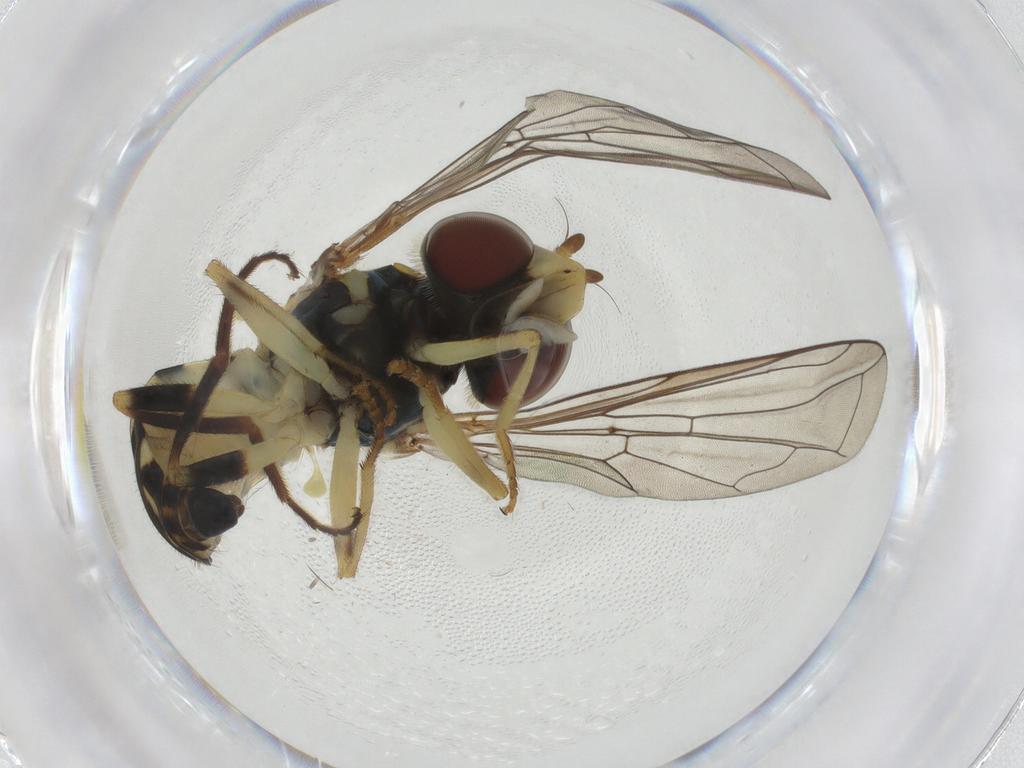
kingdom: Animalia
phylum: Arthropoda
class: Insecta
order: Diptera
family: Syrphidae
